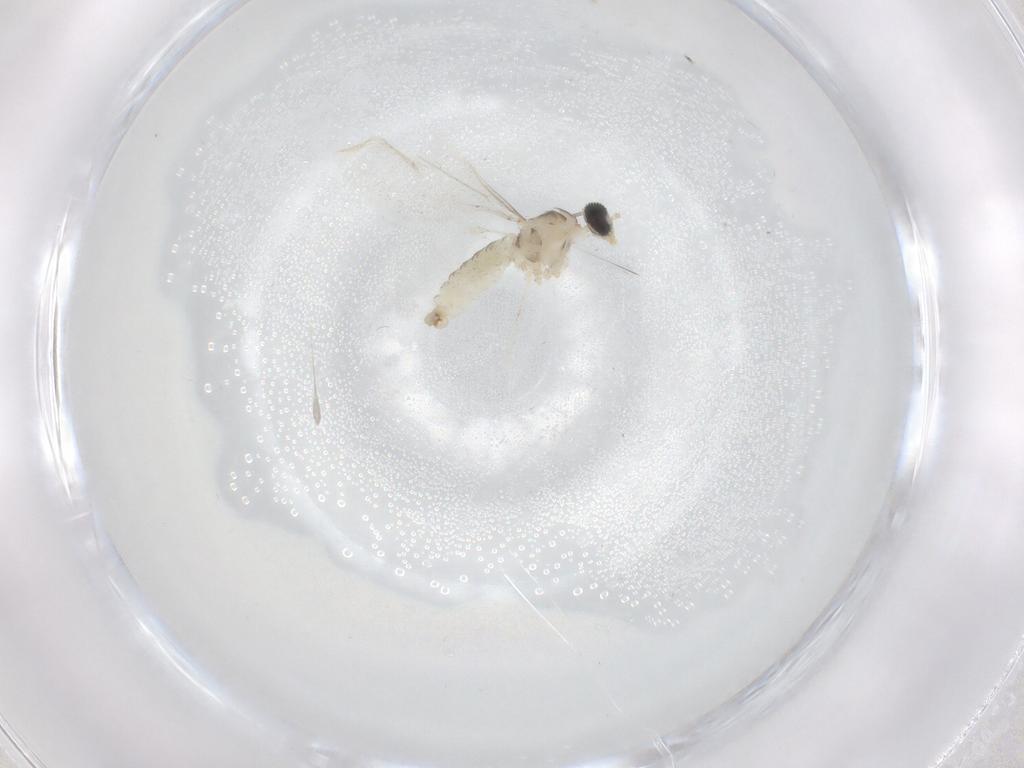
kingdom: Animalia
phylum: Arthropoda
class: Insecta
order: Diptera
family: Cecidomyiidae
